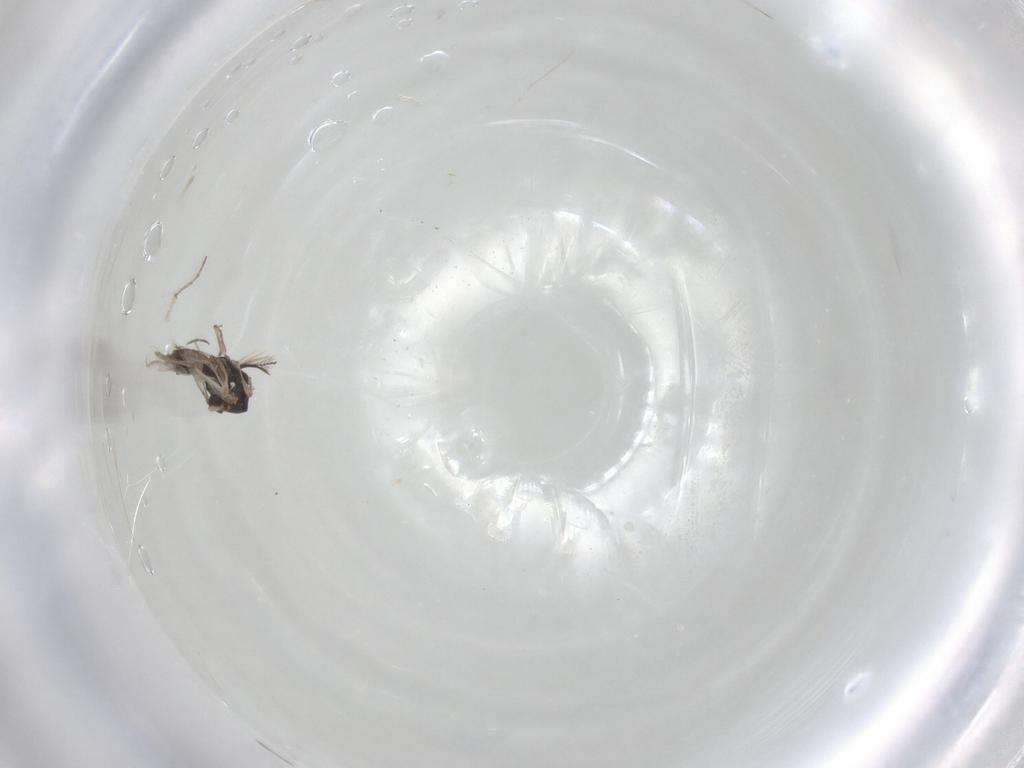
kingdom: Animalia
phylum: Arthropoda
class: Insecta
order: Diptera
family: Ceratopogonidae
